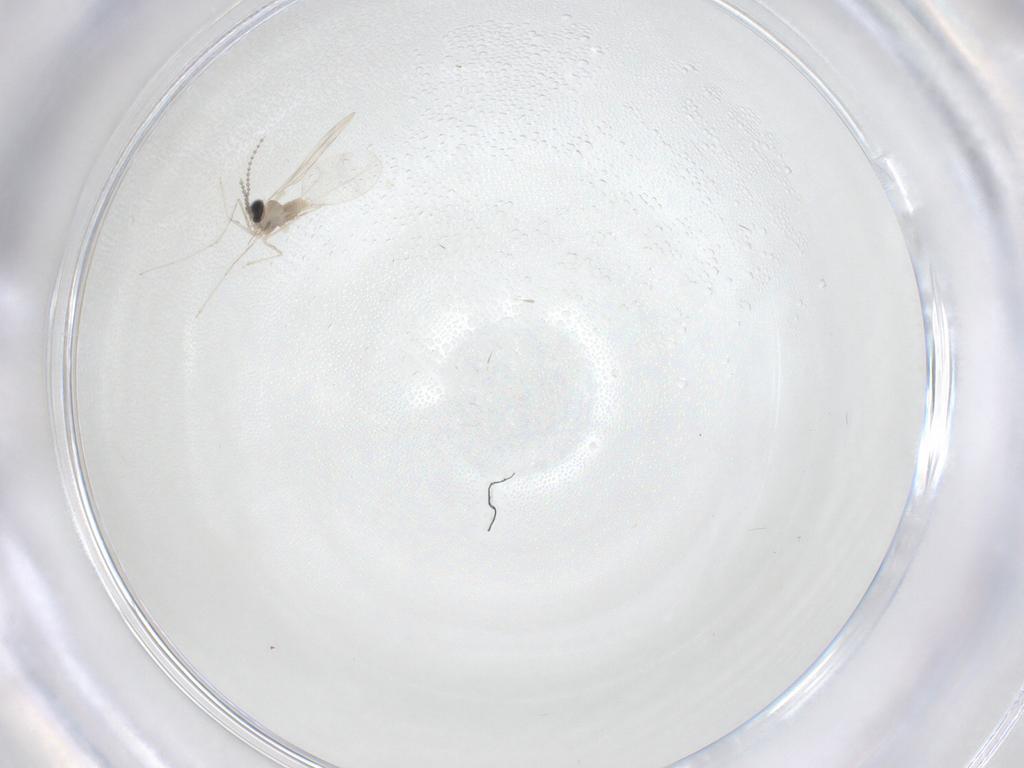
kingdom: Animalia
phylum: Arthropoda
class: Insecta
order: Diptera
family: Cecidomyiidae
